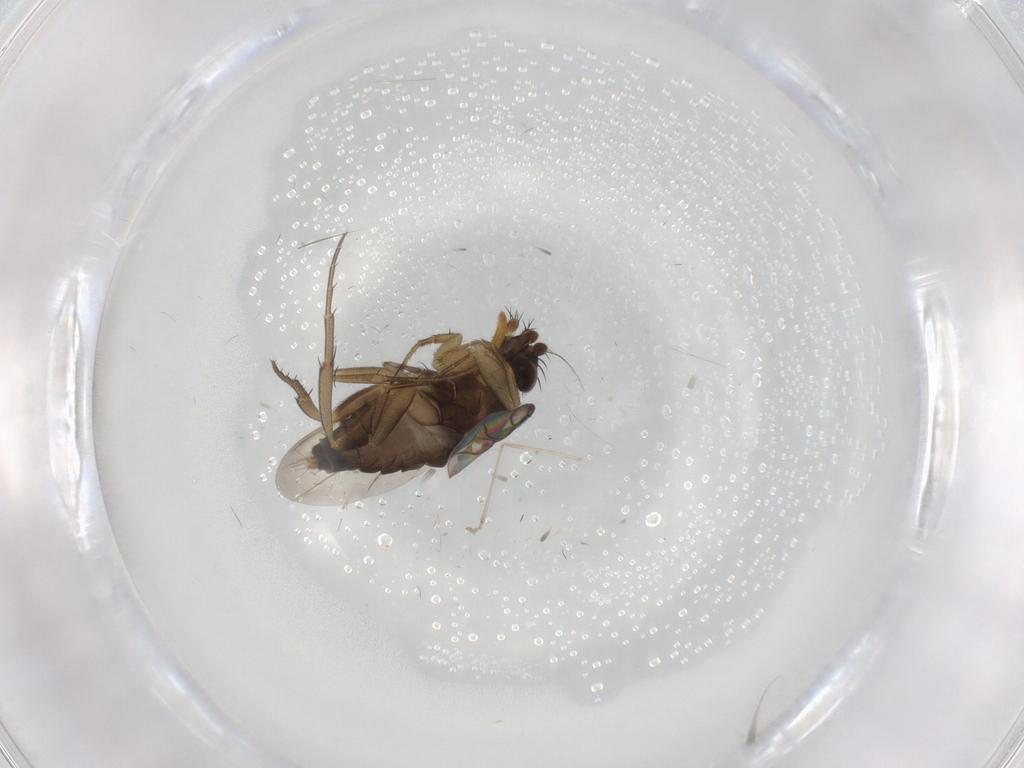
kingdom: Animalia
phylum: Arthropoda
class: Insecta
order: Diptera
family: Phoridae
